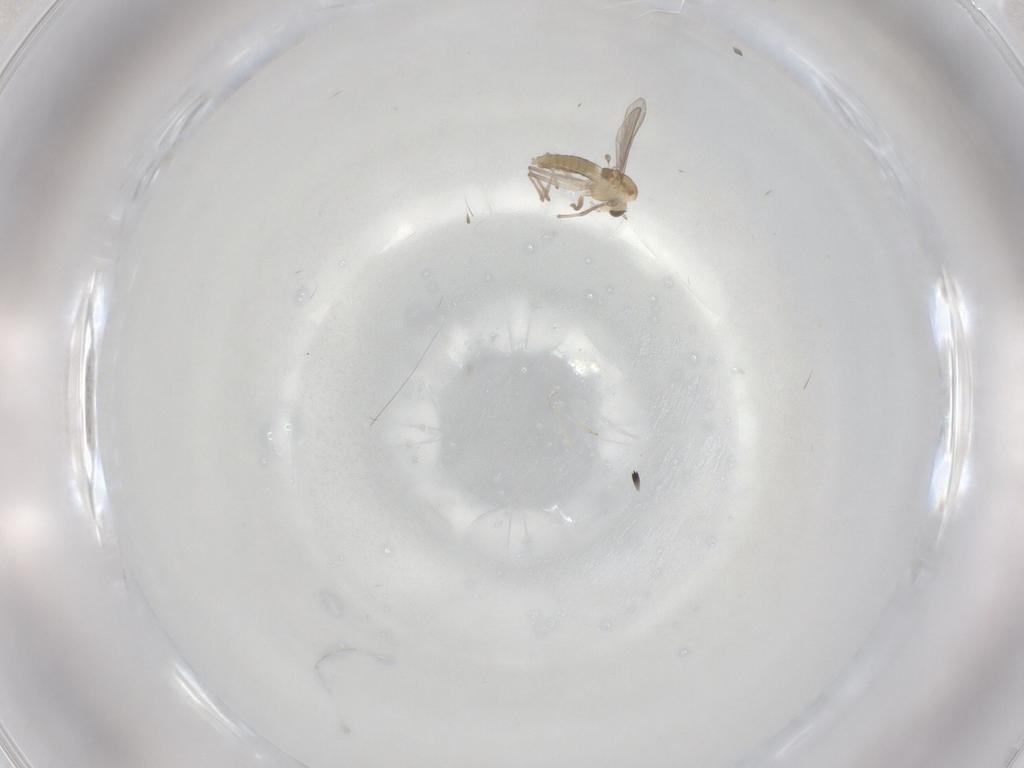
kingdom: Animalia
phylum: Arthropoda
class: Insecta
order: Diptera
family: Chironomidae
